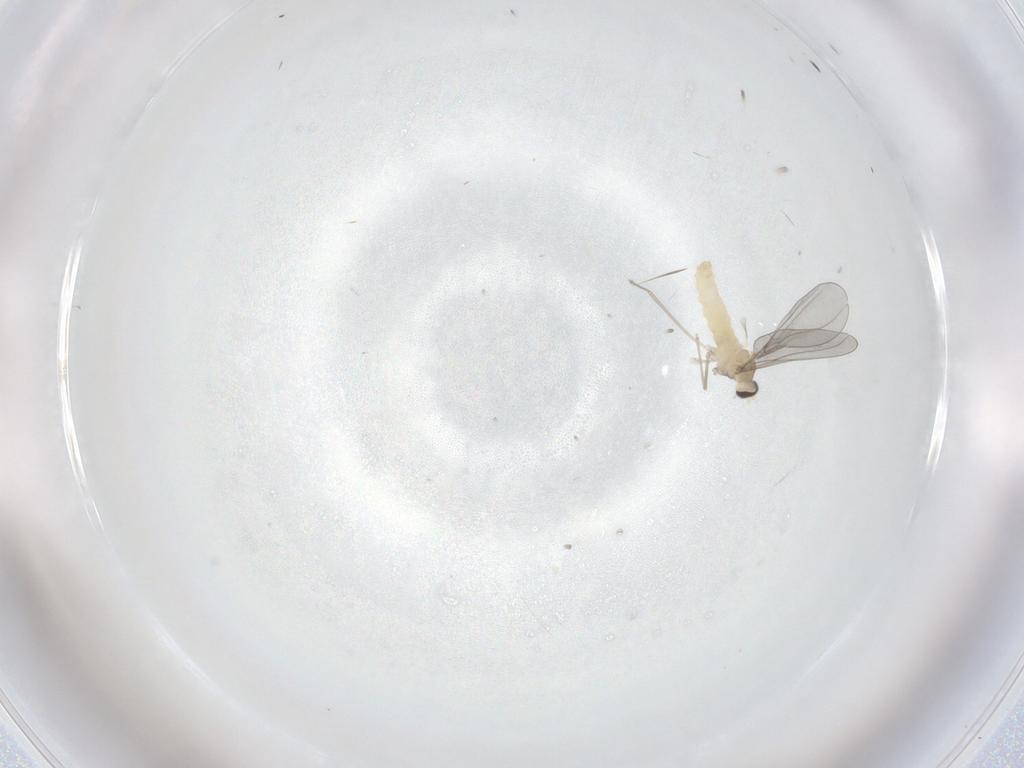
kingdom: Animalia
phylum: Arthropoda
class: Insecta
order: Diptera
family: Cecidomyiidae
